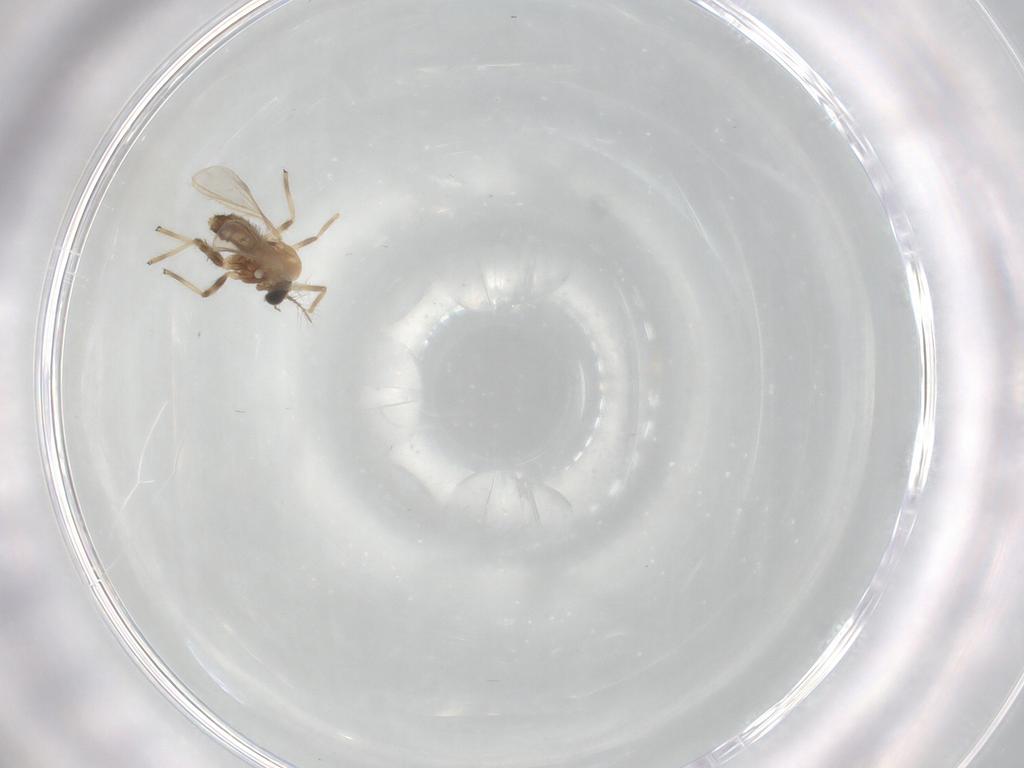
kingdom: Animalia
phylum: Arthropoda
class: Insecta
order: Diptera
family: Chironomidae
